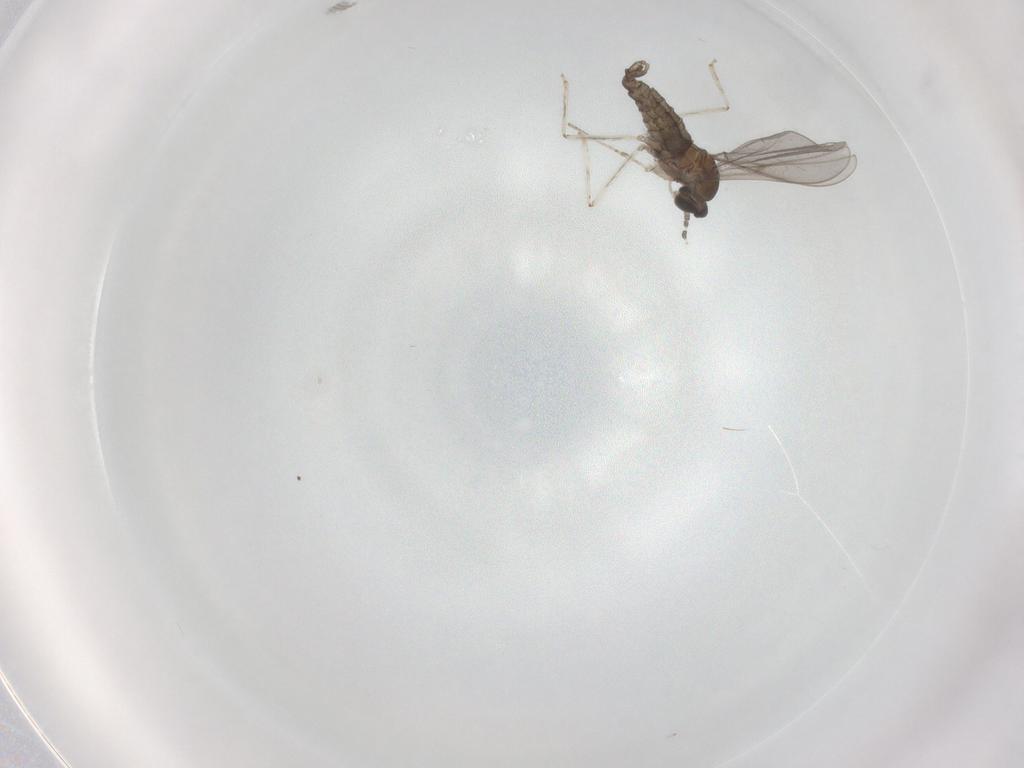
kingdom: Animalia
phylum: Arthropoda
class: Insecta
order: Diptera
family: Cecidomyiidae
